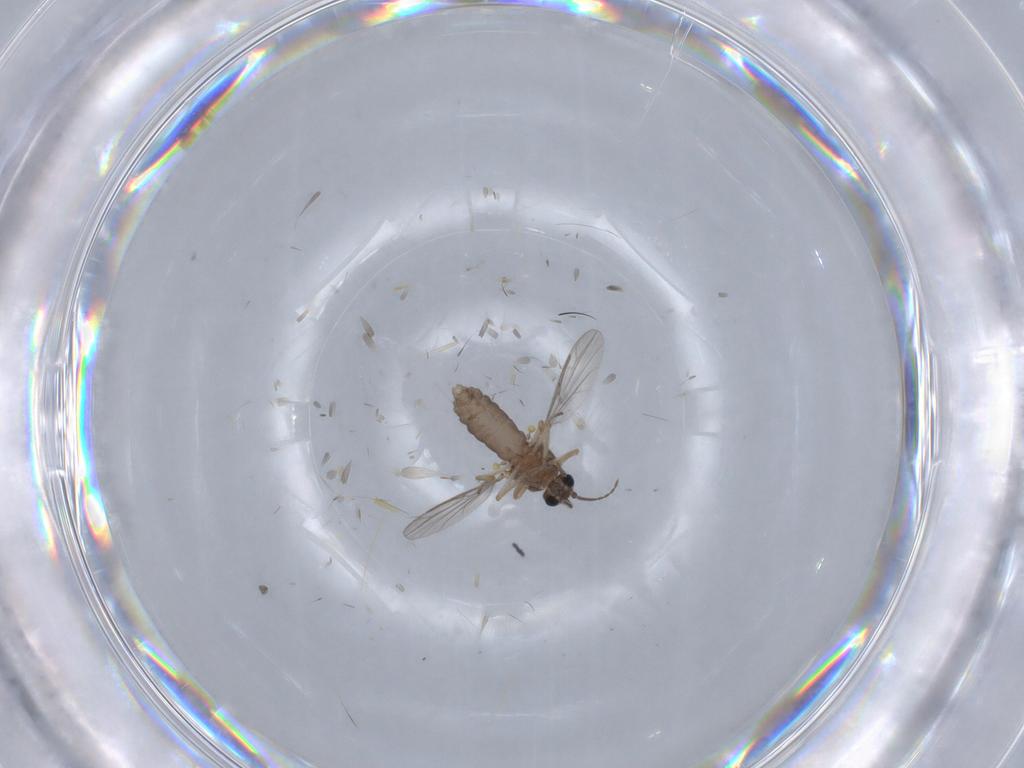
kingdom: Animalia
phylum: Arthropoda
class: Insecta
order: Diptera
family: Ceratopogonidae
